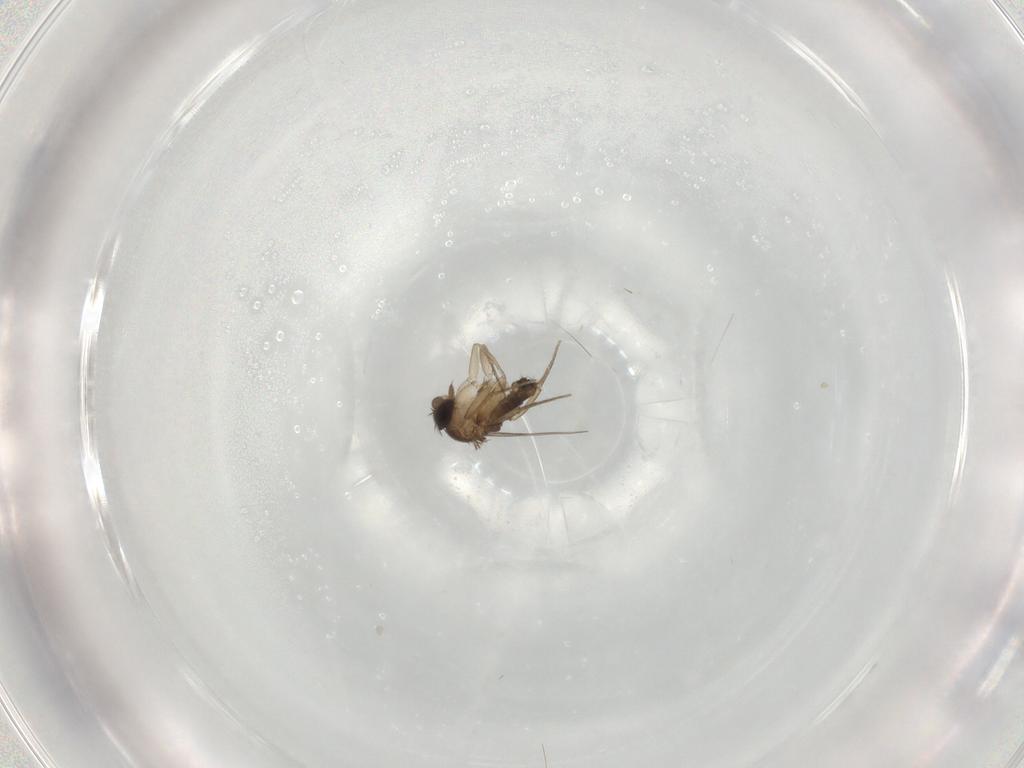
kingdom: Animalia
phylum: Arthropoda
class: Insecta
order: Diptera
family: Phoridae
